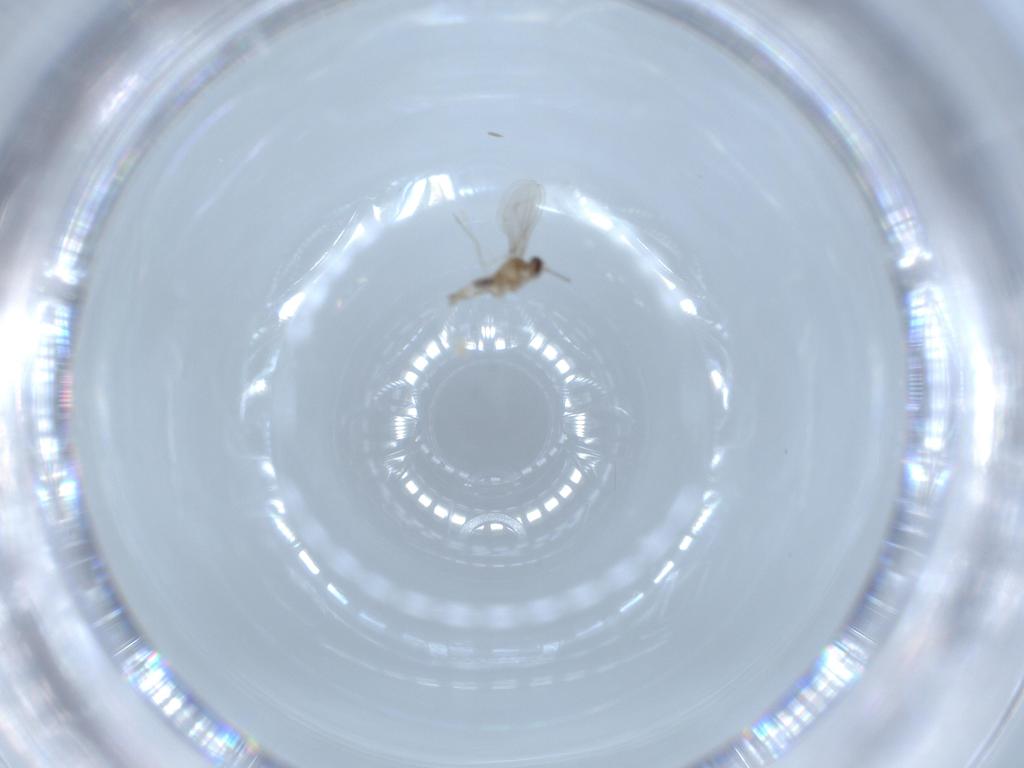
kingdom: Animalia
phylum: Arthropoda
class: Insecta
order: Diptera
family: Cecidomyiidae
